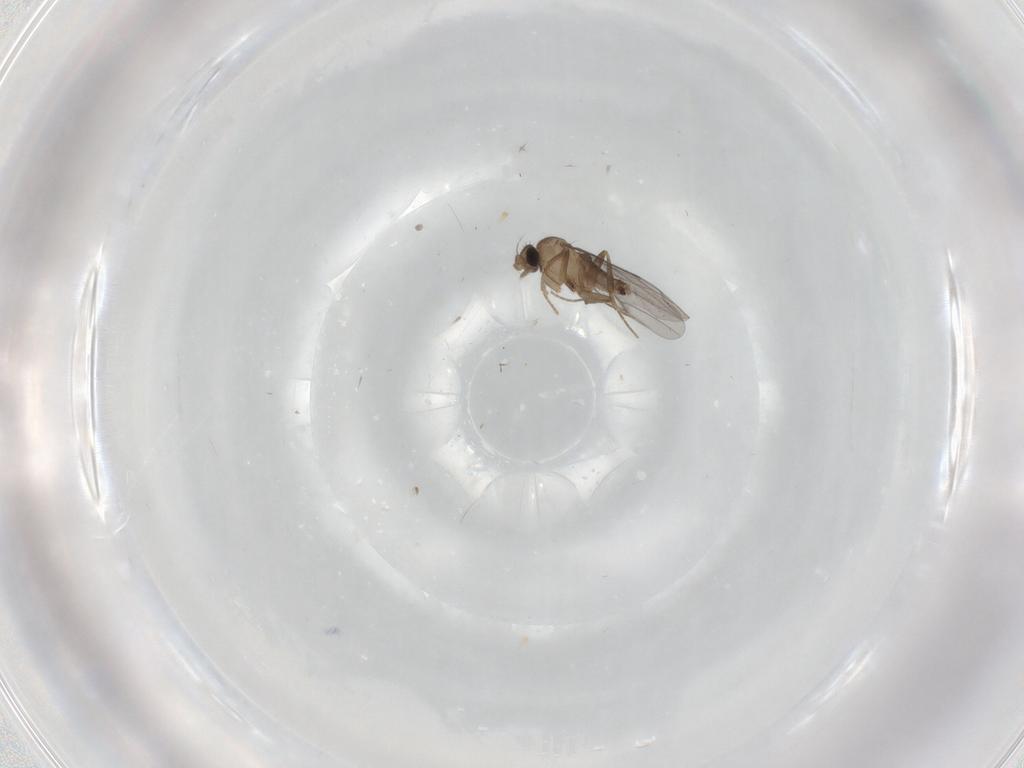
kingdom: Animalia
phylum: Arthropoda
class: Insecta
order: Diptera
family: Cecidomyiidae
